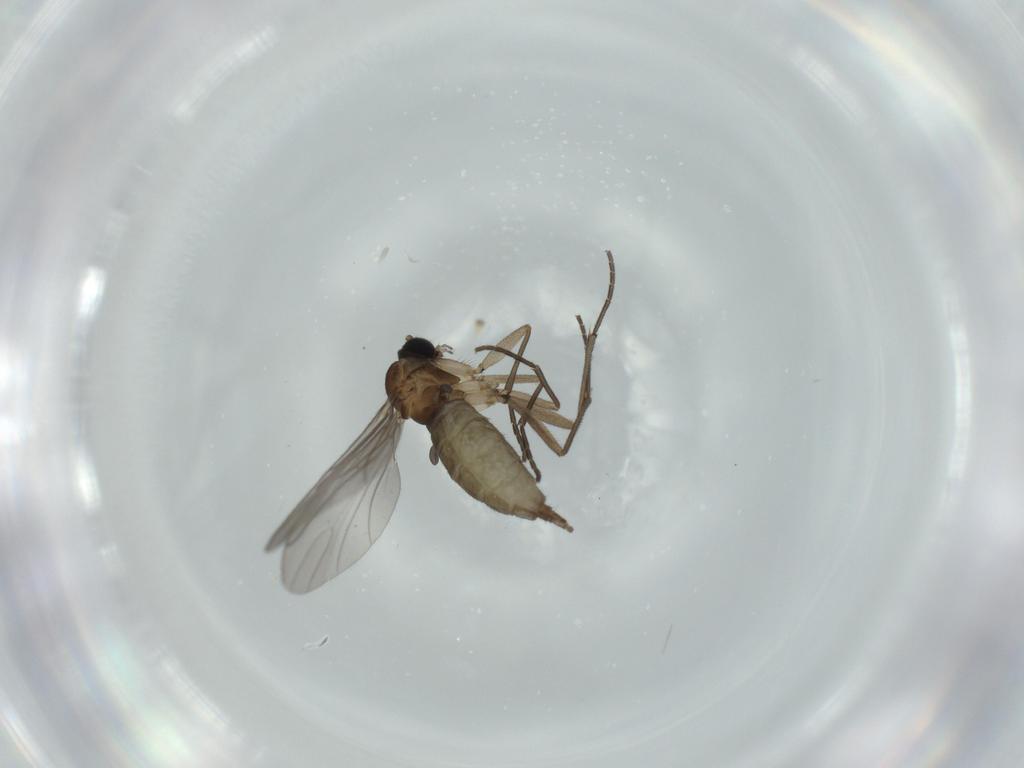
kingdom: Animalia
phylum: Arthropoda
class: Insecta
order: Diptera
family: Sciaridae
